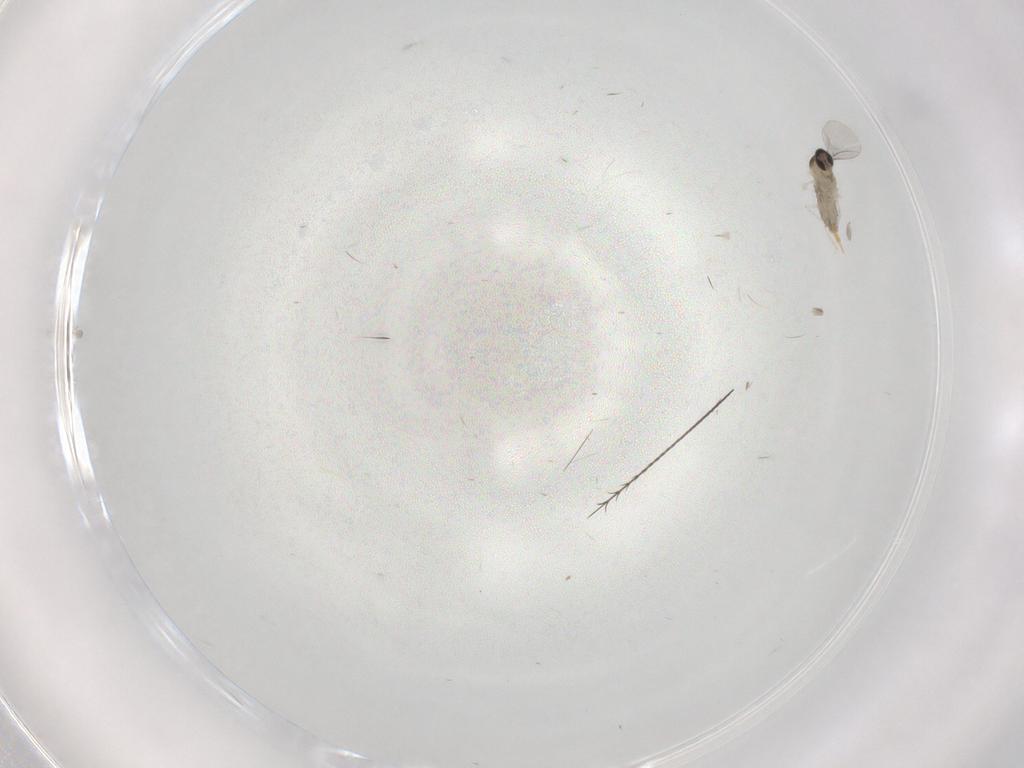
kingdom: Animalia
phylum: Arthropoda
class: Insecta
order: Diptera
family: Cecidomyiidae
